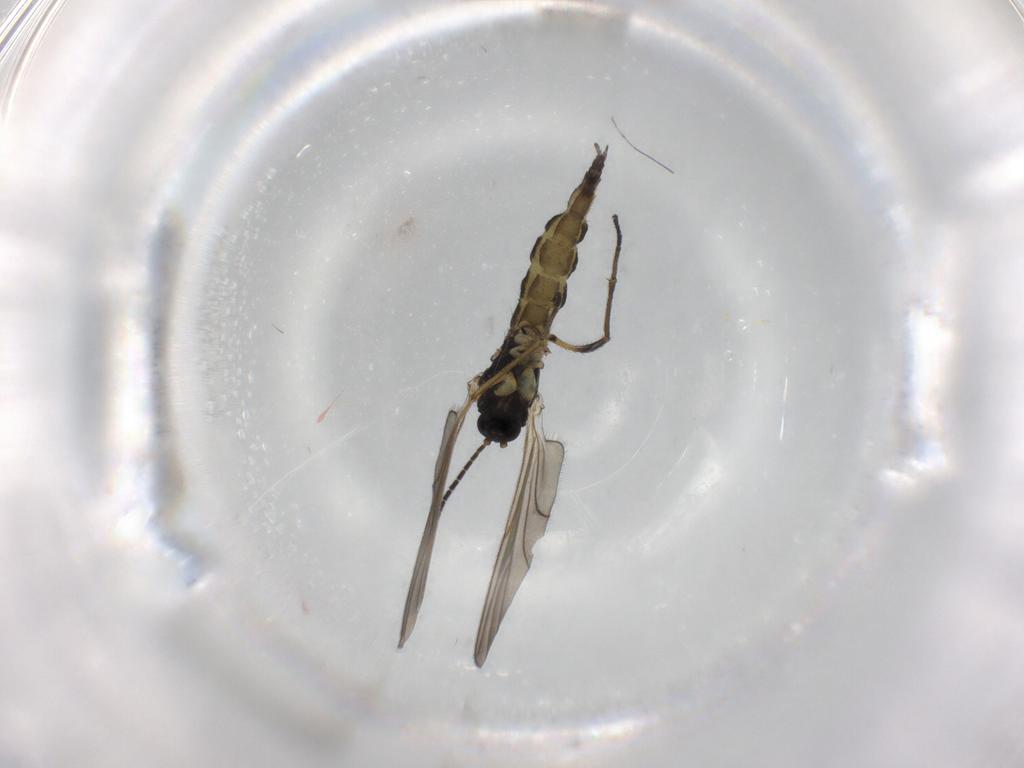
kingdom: Animalia
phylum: Arthropoda
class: Insecta
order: Diptera
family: Sciaridae
